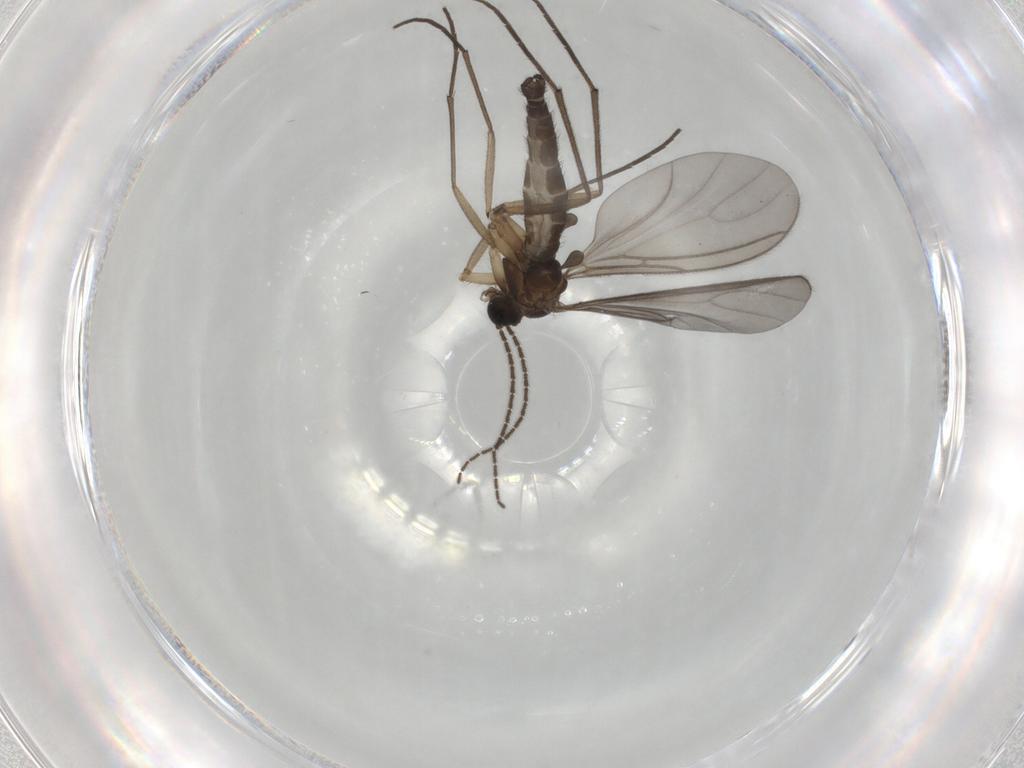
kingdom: Animalia
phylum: Arthropoda
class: Insecta
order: Diptera
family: Sciaridae
